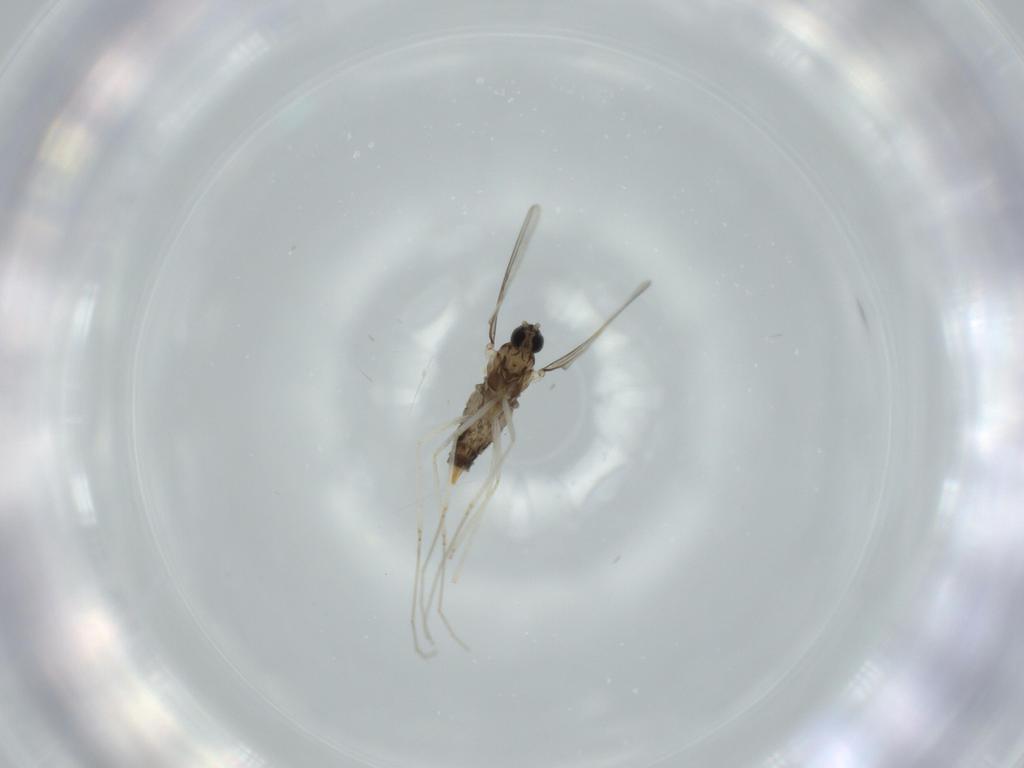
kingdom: Animalia
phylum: Arthropoda
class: Insecta
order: Diptera
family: Cecidomyiidae
